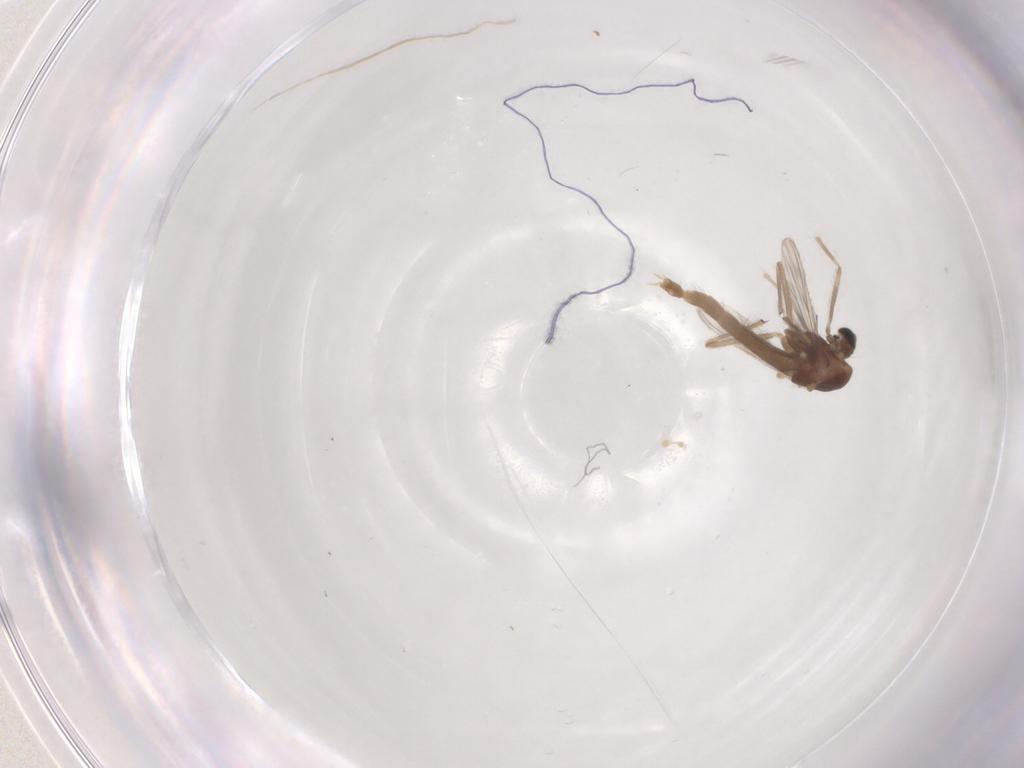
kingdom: Animalia
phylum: Arthropoda
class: Insecta
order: Diptera
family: Chironomidae
